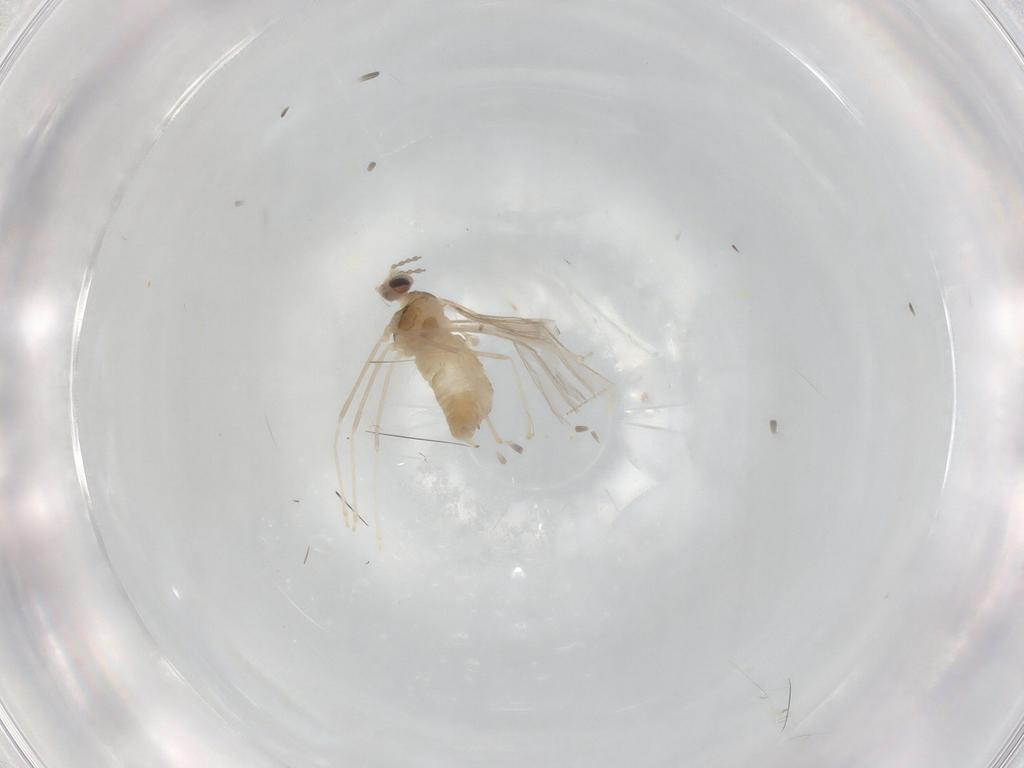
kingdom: Animalia
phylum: Arthropoda
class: Insecta
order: Diptera
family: Cecidomyiidae
